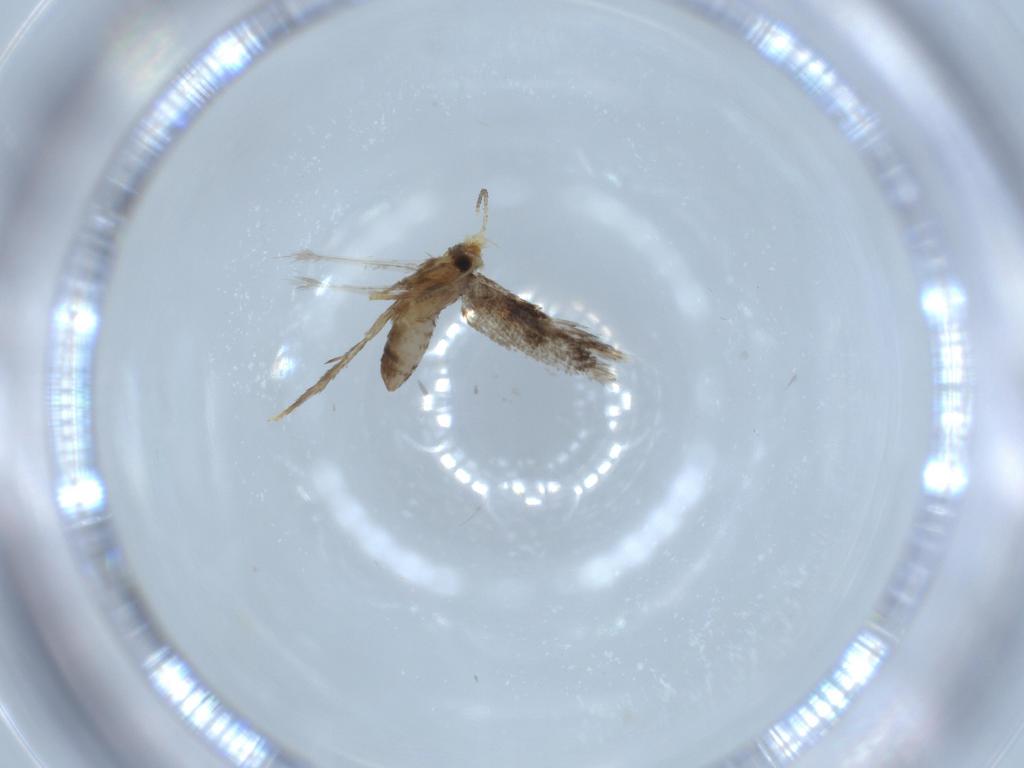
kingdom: Animalia
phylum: Arthropoda
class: Insecta
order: Lepidoptera
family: Nepticulidae
